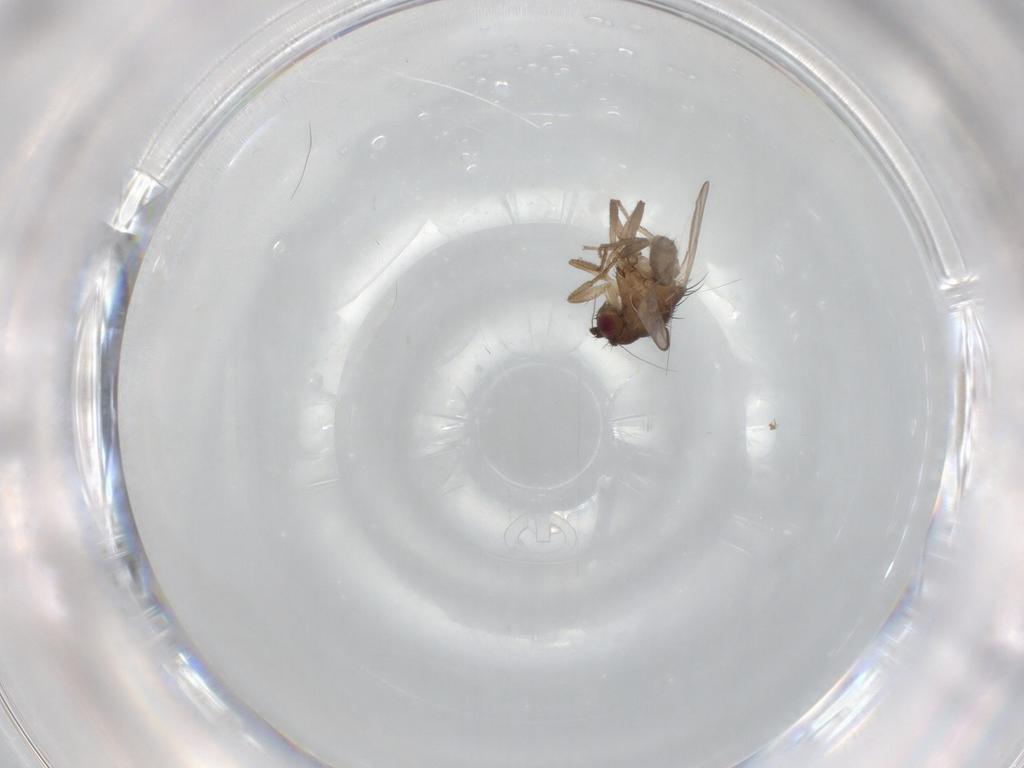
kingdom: Animalia
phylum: Arthropoda
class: Insecta
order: Diptera
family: Sphaeroceridae
